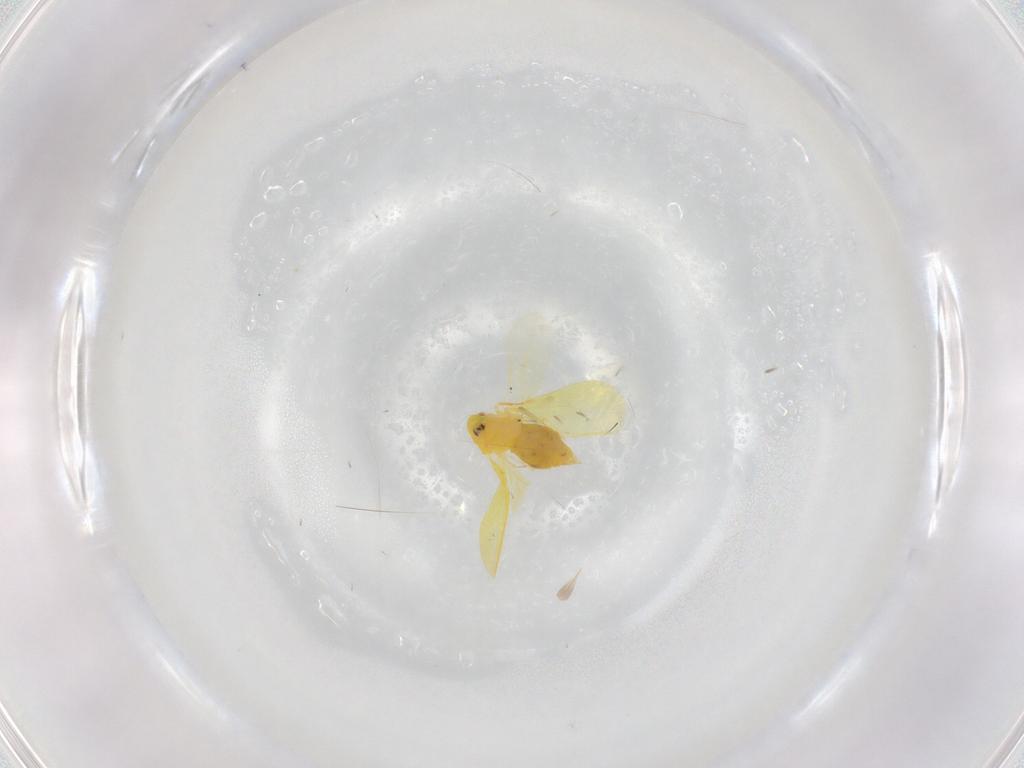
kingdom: Animalia
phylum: Arthropoda
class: Insecta
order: Hemiptera
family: Aleyrodidae
